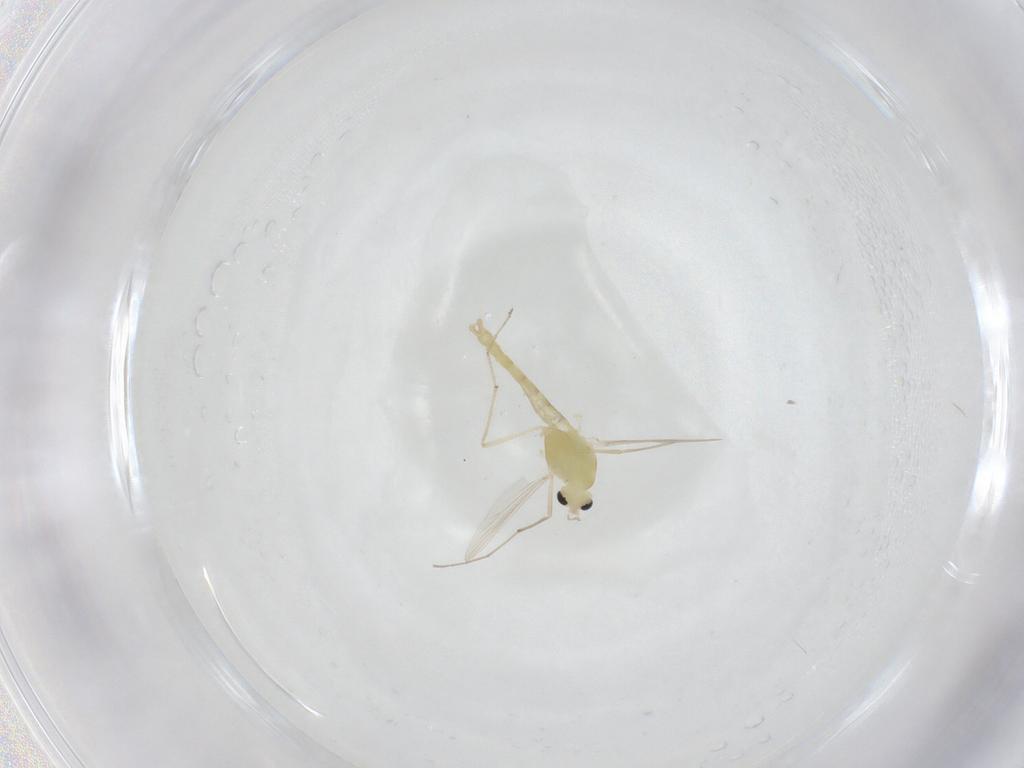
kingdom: Animalia
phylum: Arthropoda
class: Insecta
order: Diptera
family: Chironomidae
